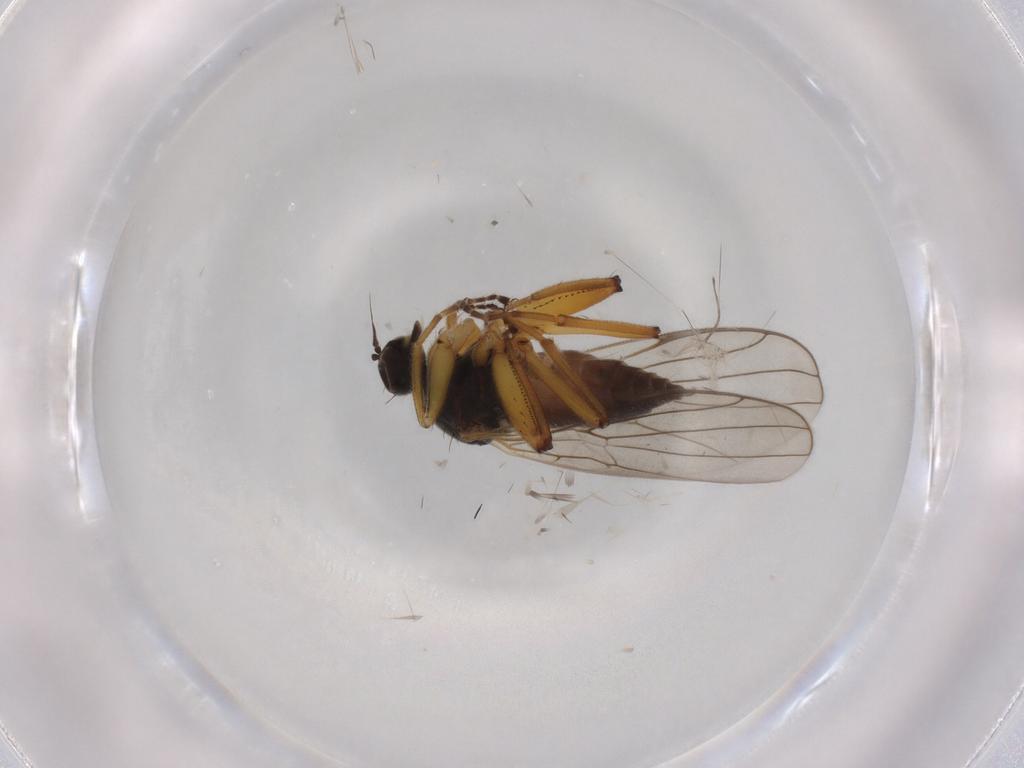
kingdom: Animalia
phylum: Arthropoda
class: Insecta
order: Diptera
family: Hybotidae
